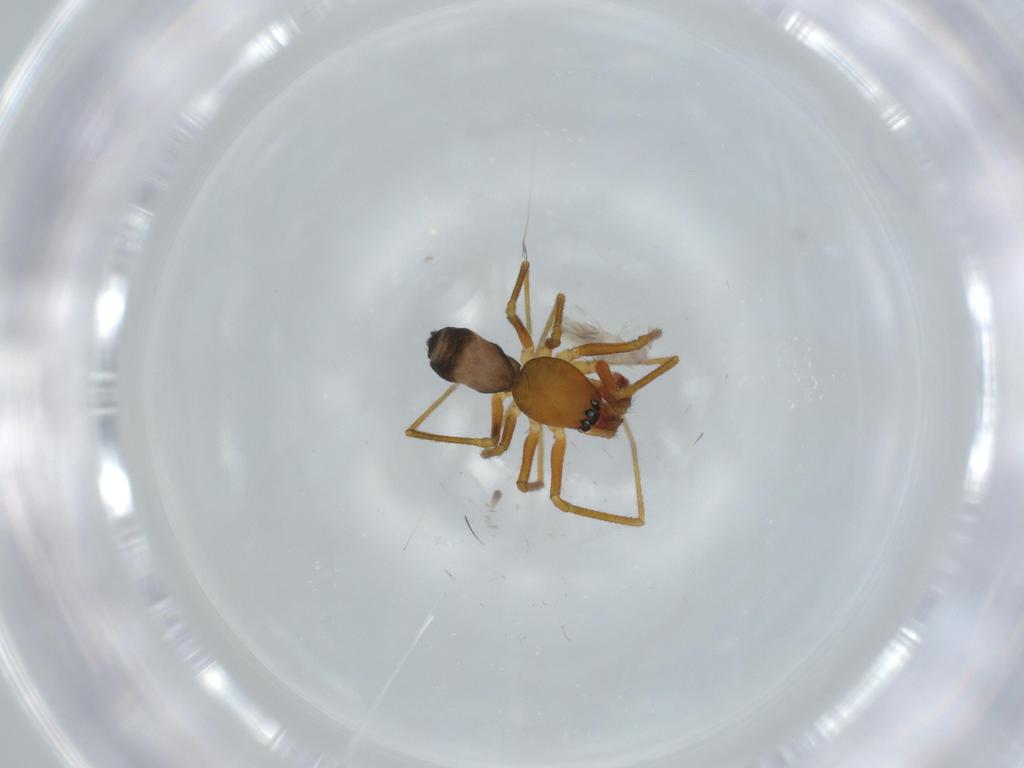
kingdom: Animalia
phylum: Arthropoda
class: Arachnida
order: Araneae
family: Linyphiidae
